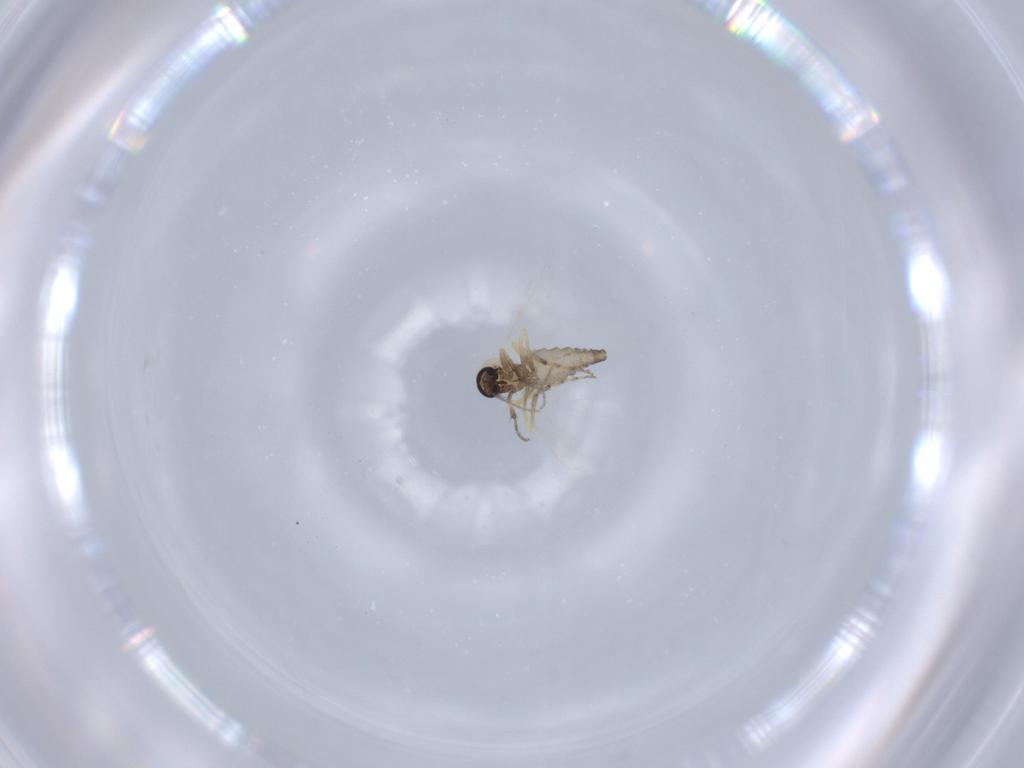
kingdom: Animalia
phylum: Arthropoda
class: Insecta
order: Diptera
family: Ceratopogonidae
